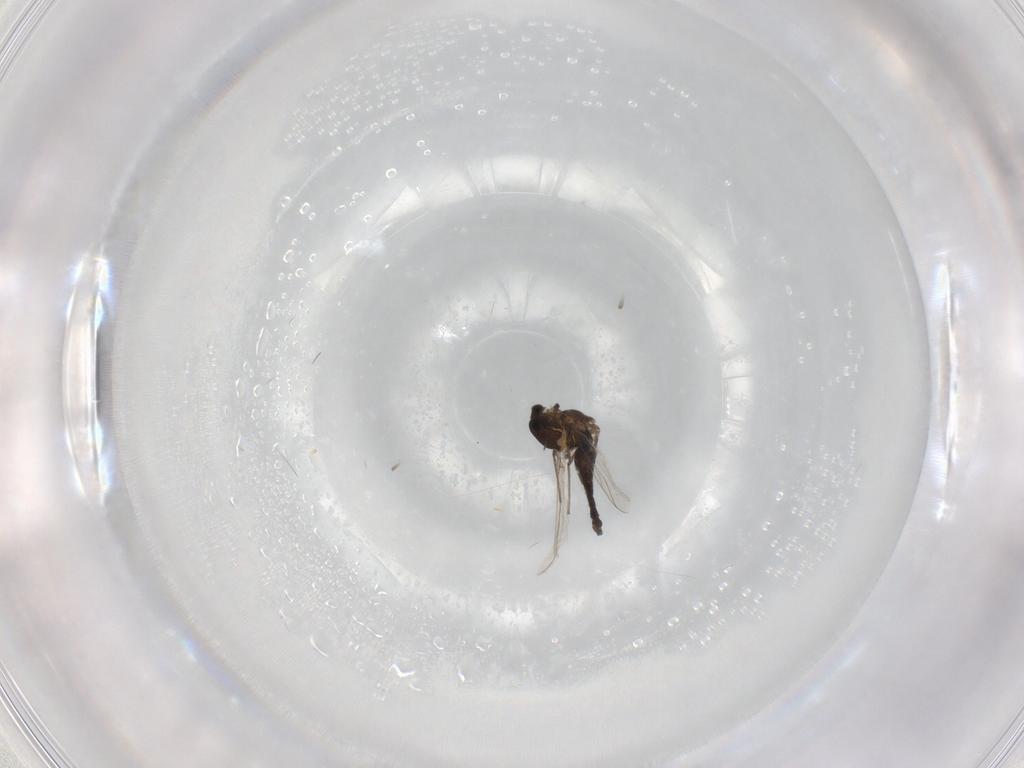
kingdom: Animalia
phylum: Arthropoda
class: Insecta
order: Diptera
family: Chironomidae
